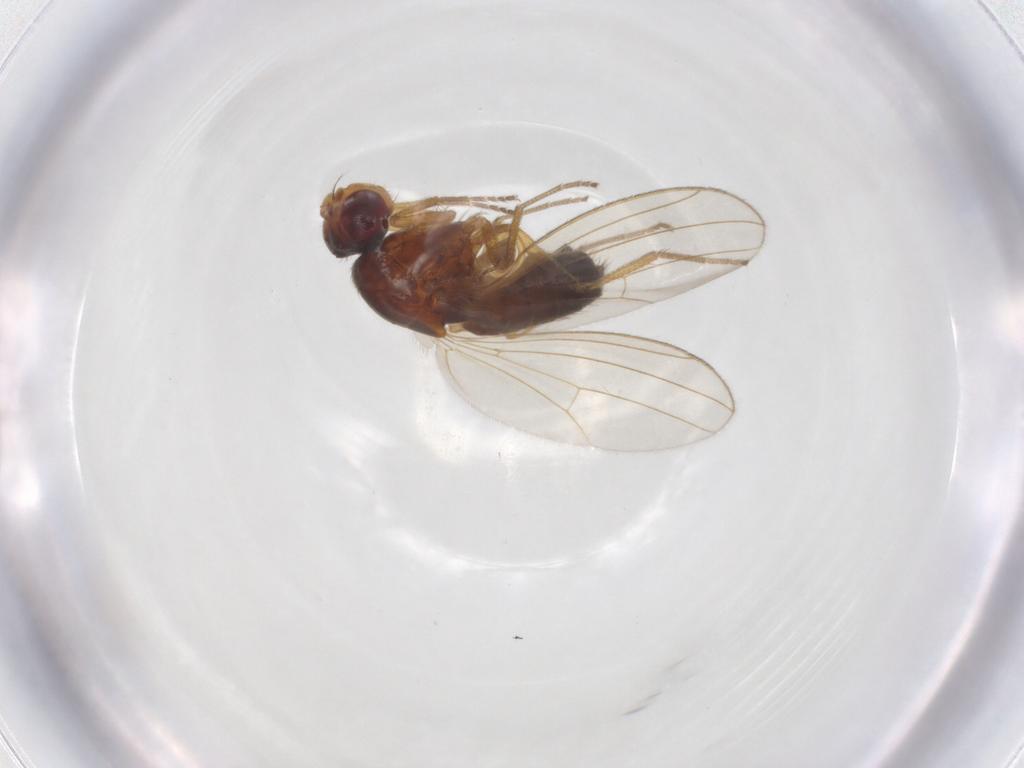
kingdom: Animalia
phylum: Arthropoda
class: Insecta
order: Diptera
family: Drosophilidae
